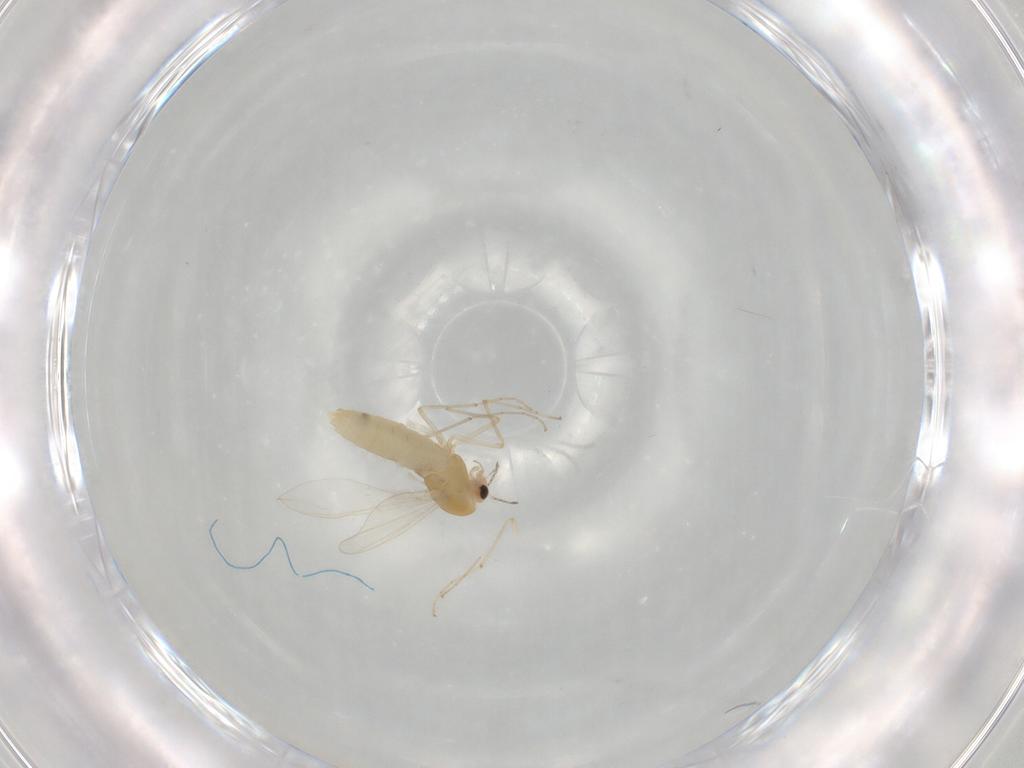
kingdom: Animalia
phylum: Arthropoda
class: Insecta
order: Diptera
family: Chironomidae
